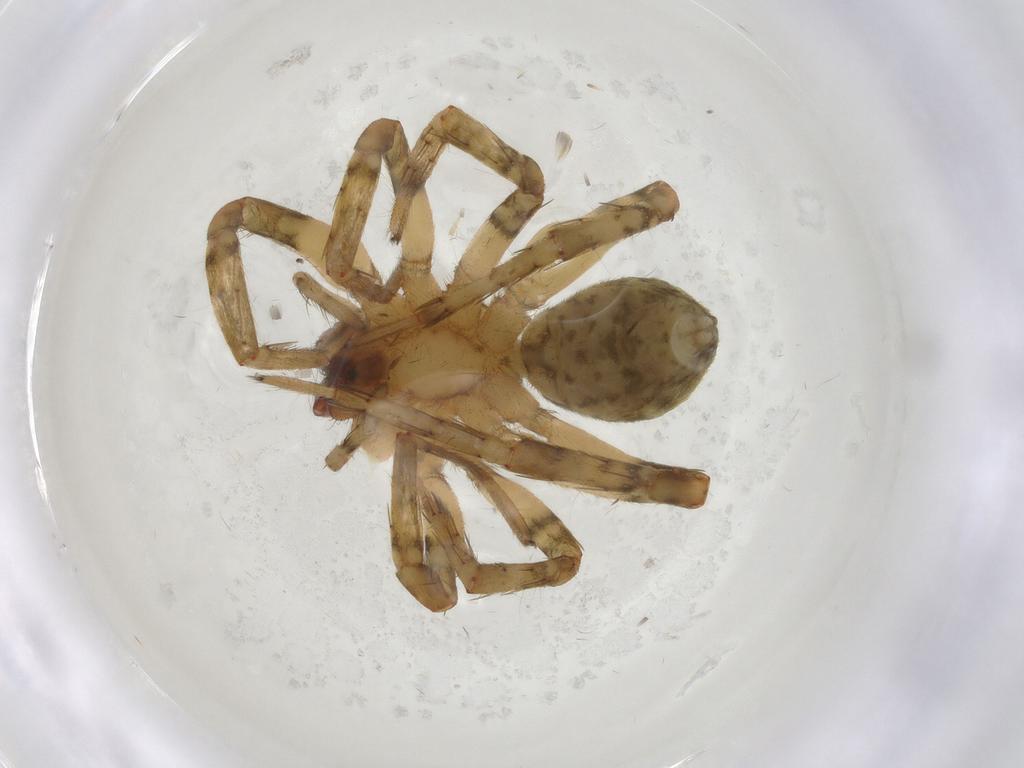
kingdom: Animalia
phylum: Arthropoda
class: Arachnida
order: Araneae
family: Anyphaenidae
